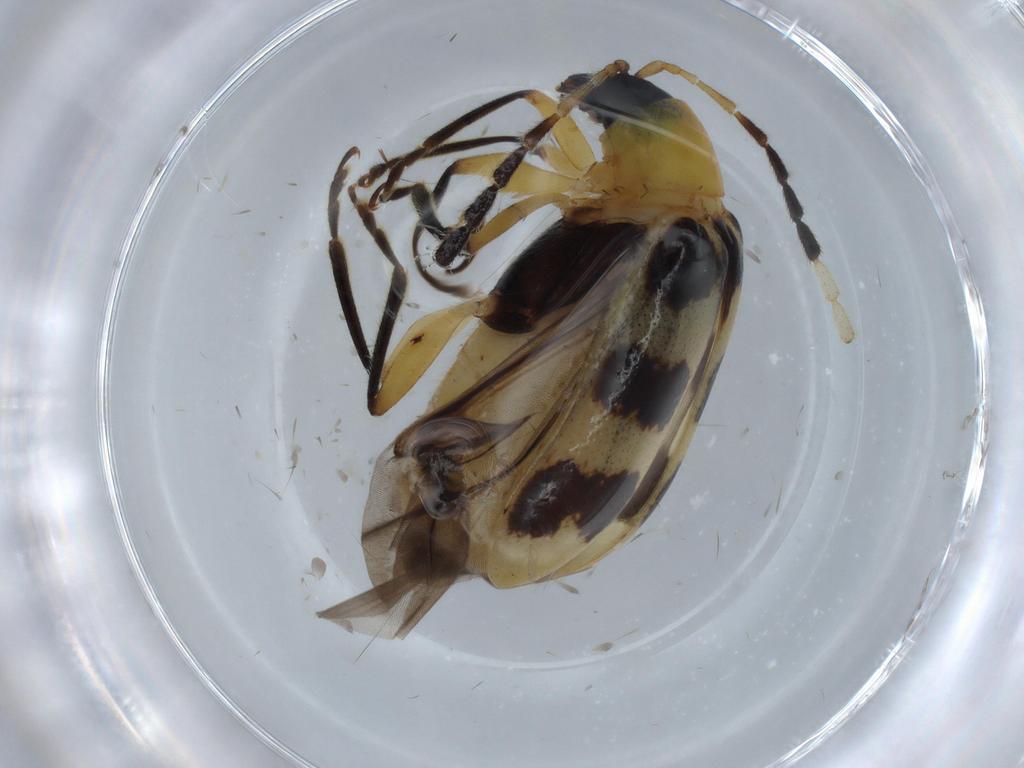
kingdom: Animalia
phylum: Arthropoda
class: Insecta
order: Coleoptera
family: Chrysomelidae
